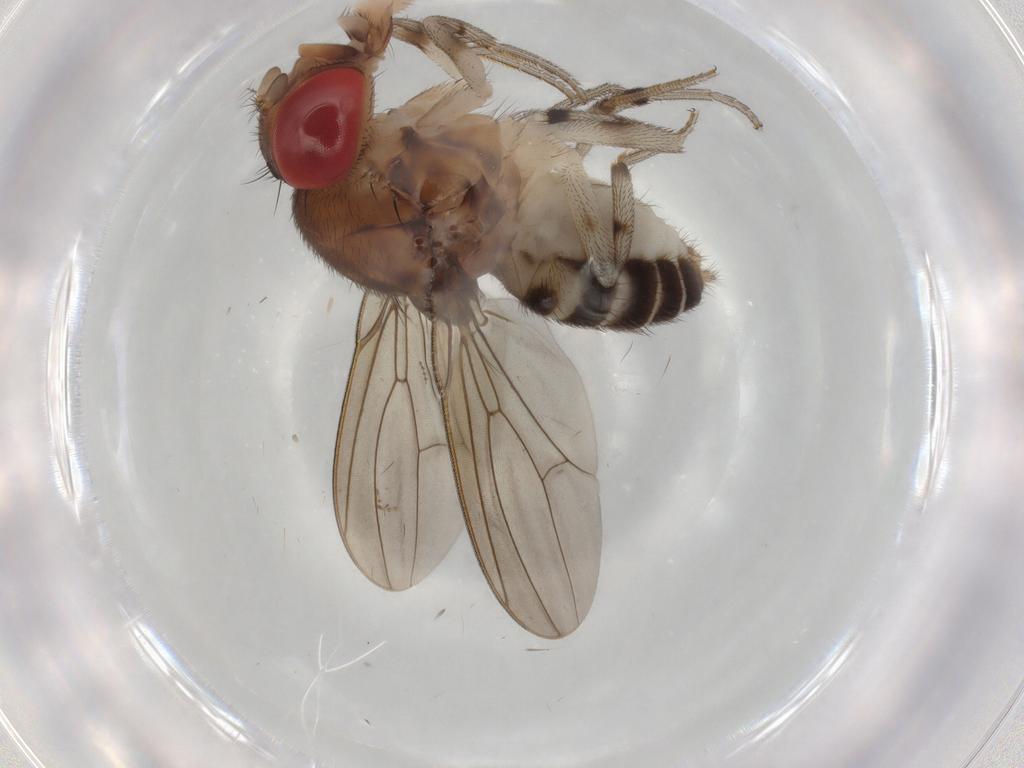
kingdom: Animalia
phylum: Arthropoda
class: Insecta
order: Diptera
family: Drosophilidae
